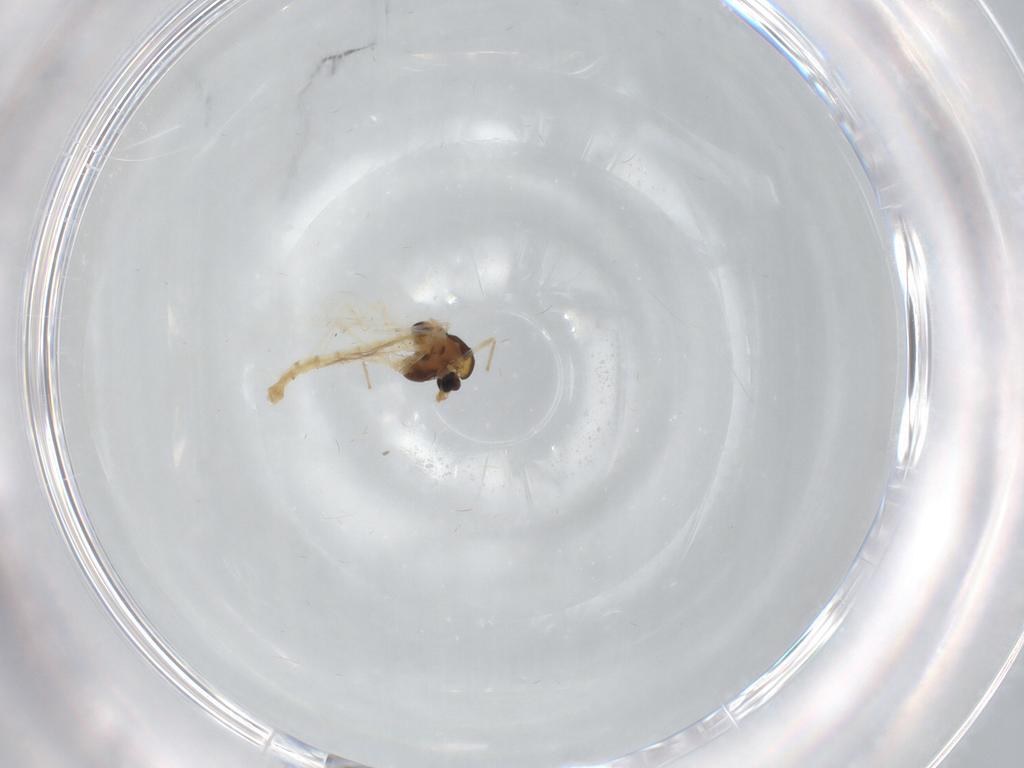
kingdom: Animalia
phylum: Arthropoda
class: Insecta
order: Diptera
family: Chironomidae
